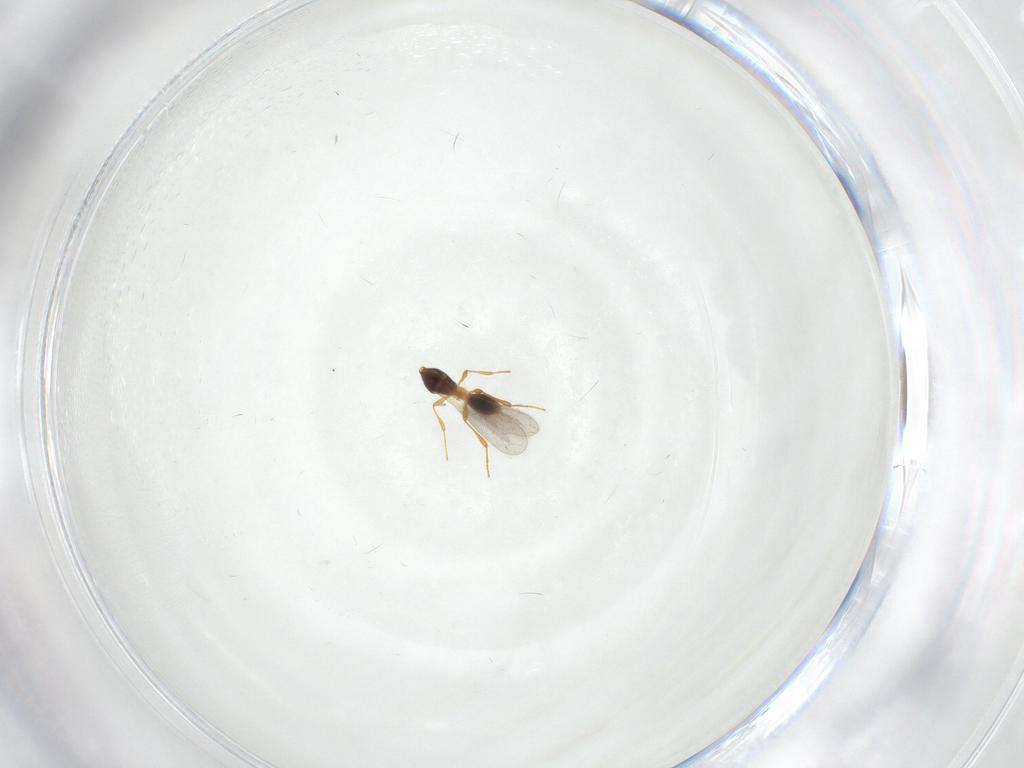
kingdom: Animalia
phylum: Arthropoda
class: Insecta
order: Hymenoptera
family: Platygastridae
